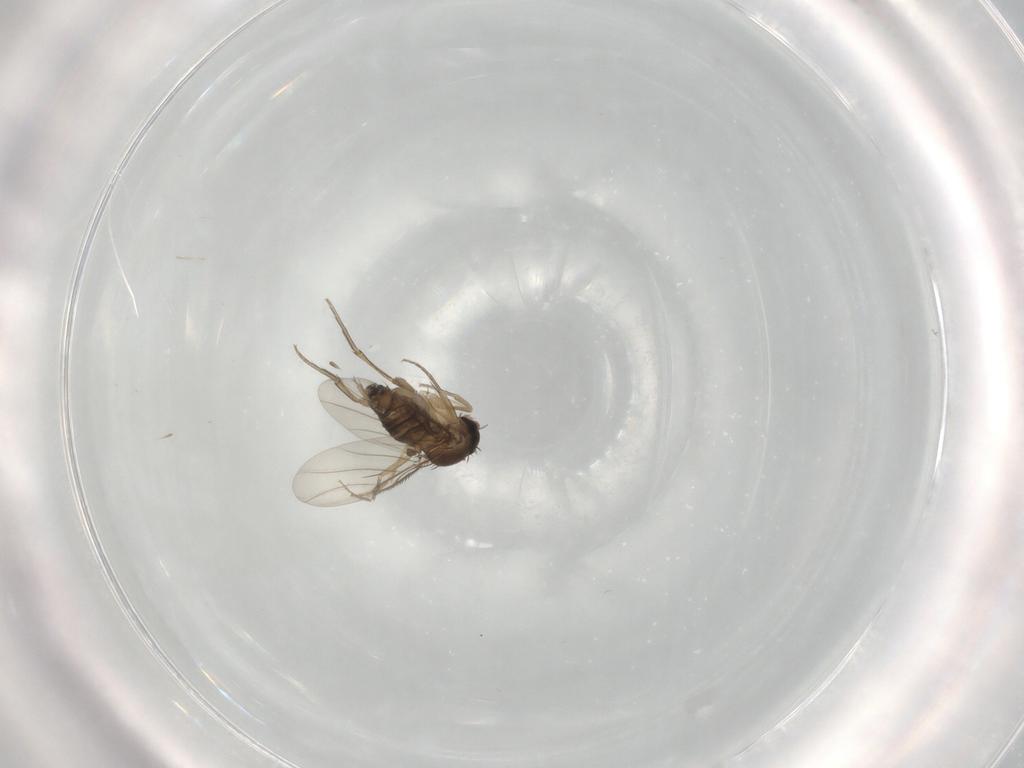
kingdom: Animalia
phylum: Arthropoda
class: Insecta
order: Diptera
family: Phoridae
